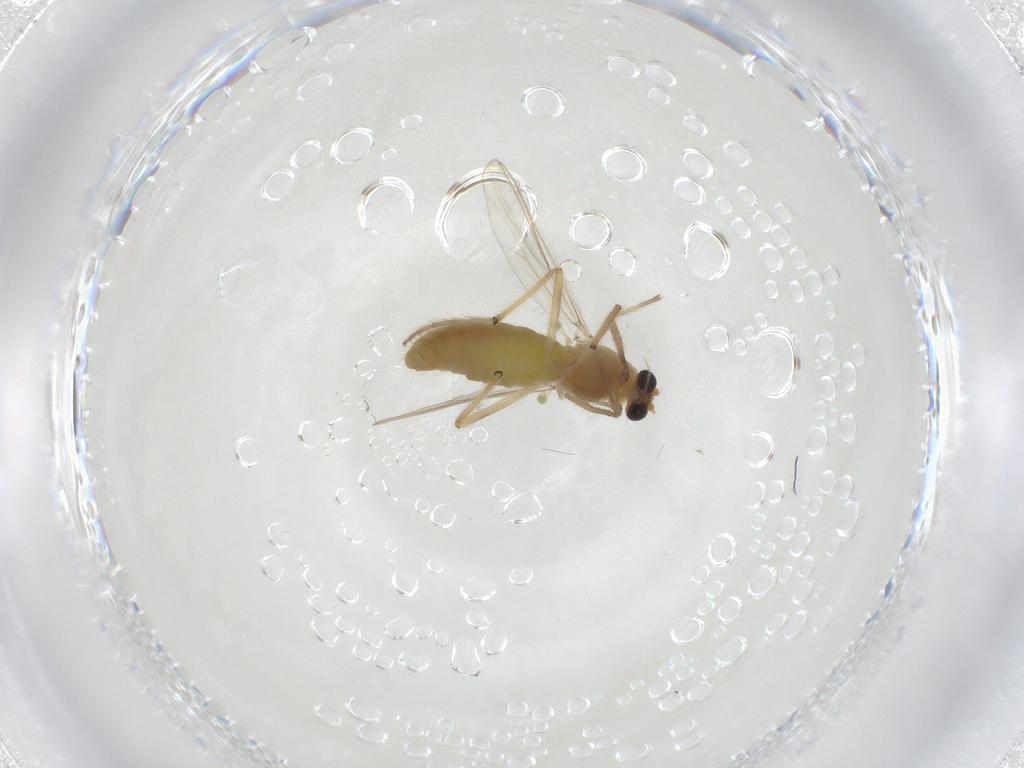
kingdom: Animalia
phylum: Arthropoda
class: Insecta
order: Diptera
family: Chironomidae
